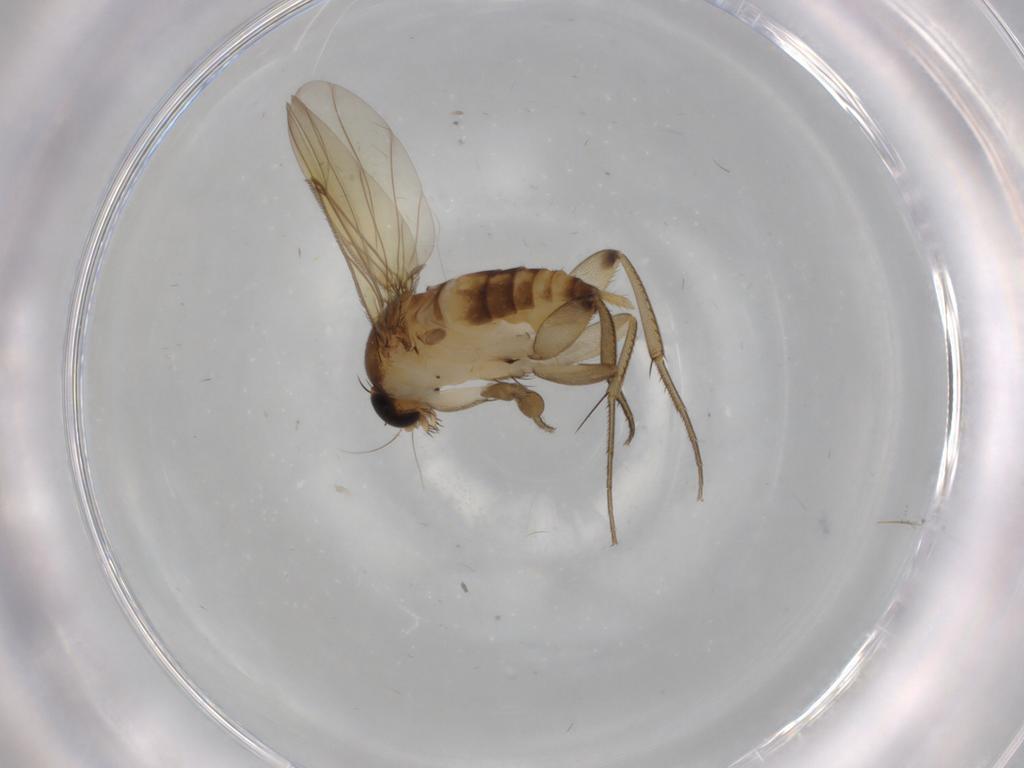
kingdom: Animalia
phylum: Arthropoda
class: Insecta
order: Diptera
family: Phoridae
